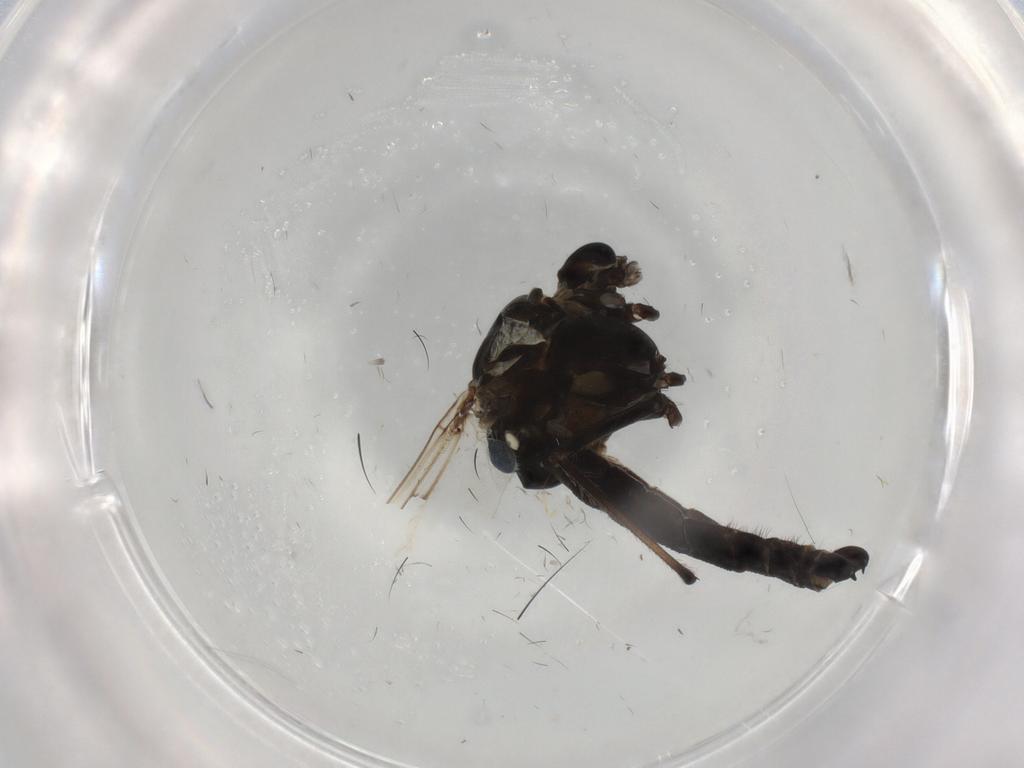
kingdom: Animalia
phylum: Arthropoda
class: Insecta
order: Diptera
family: Chironomidae
